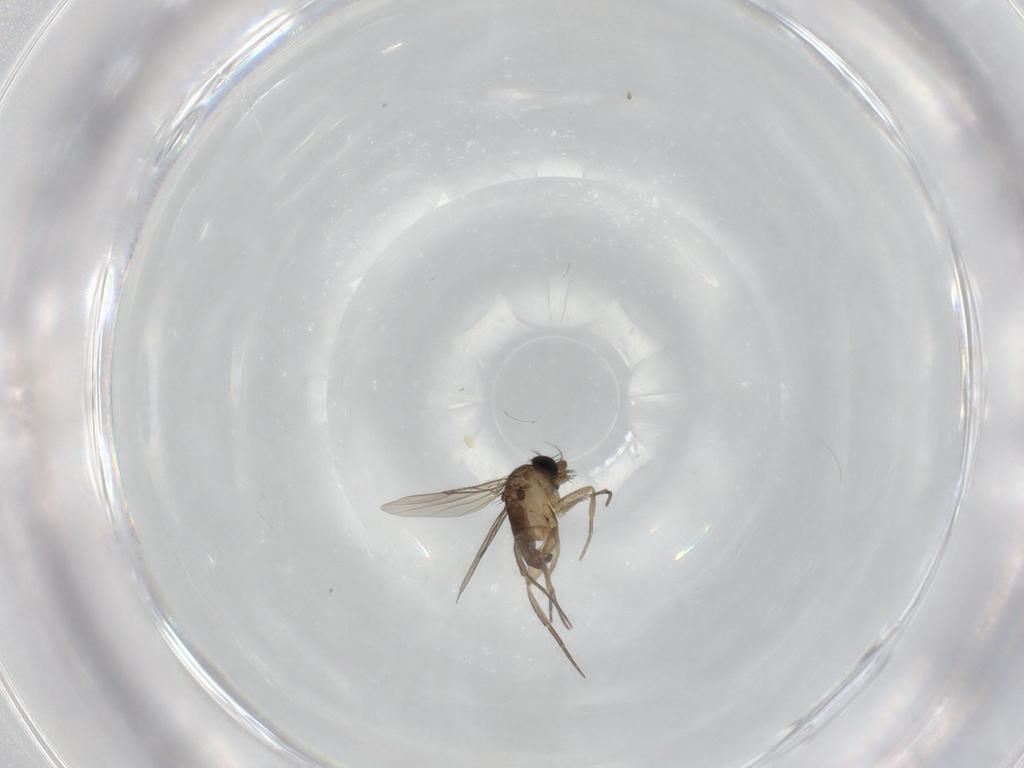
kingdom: Animalia
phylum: Arthropoda
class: Insecta
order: Diptera
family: Phoridae
